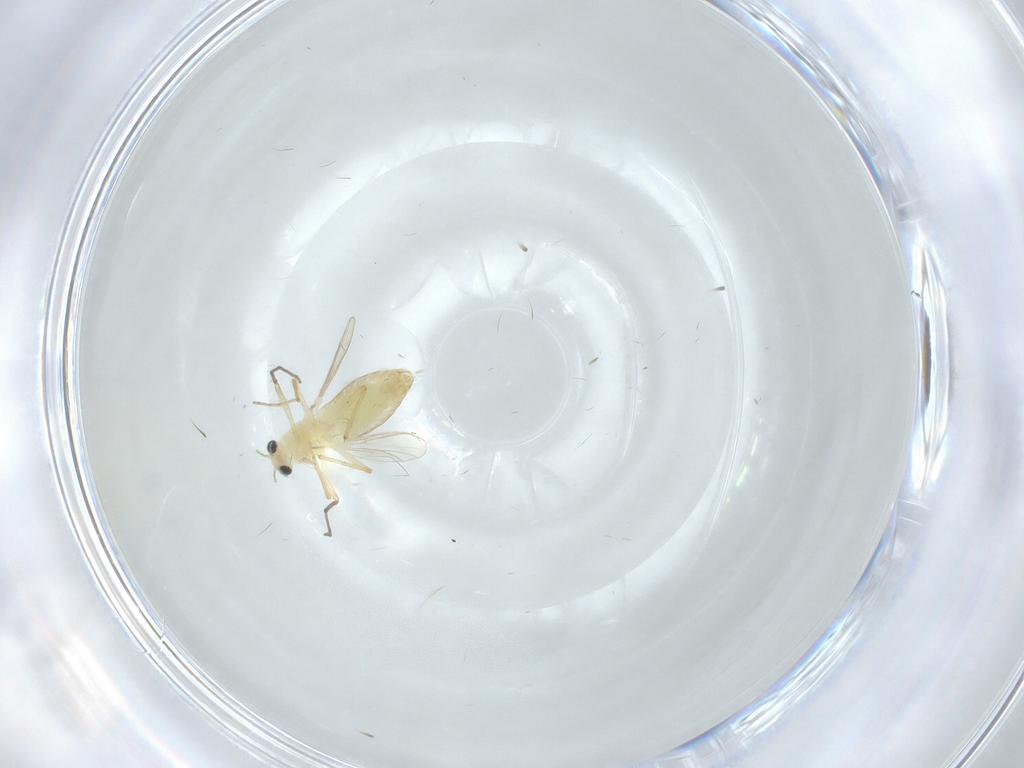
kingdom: Animalia
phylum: Arthropoda
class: Insecta
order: Diptera
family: Chironomidae
